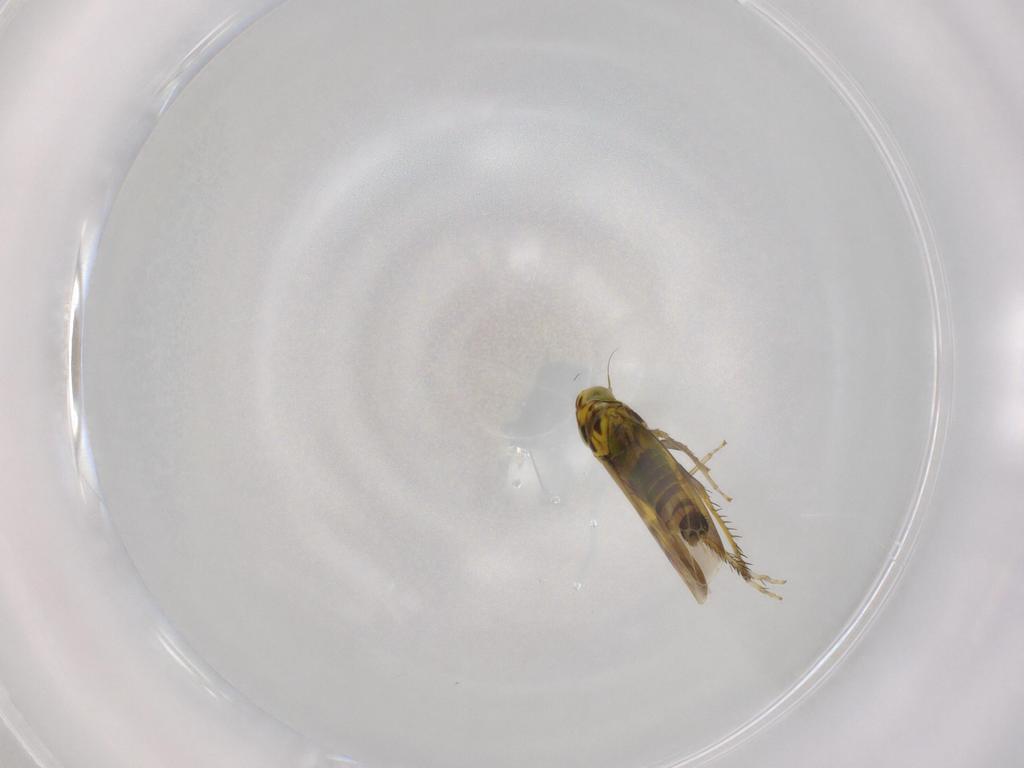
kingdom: Animalia
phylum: Arthropoda
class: Insecta
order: Hemiptera
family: Cicadellidae
